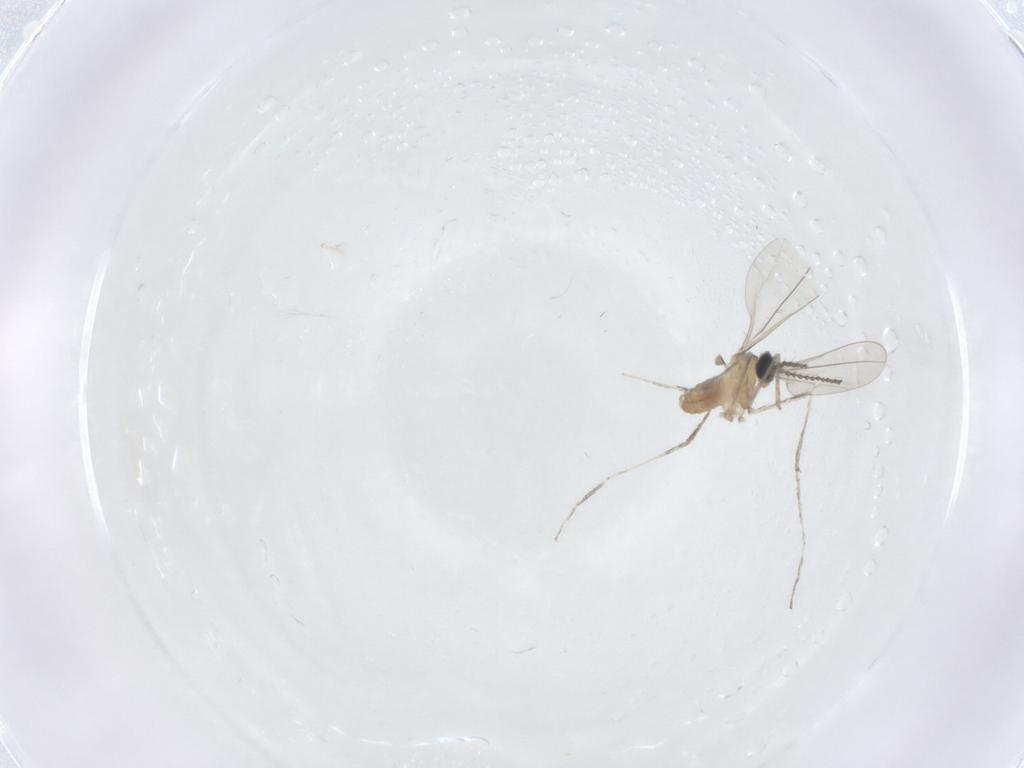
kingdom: Animalia
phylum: Arthropoda
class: Insecta
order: Diptera
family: Cecidomyiidae
